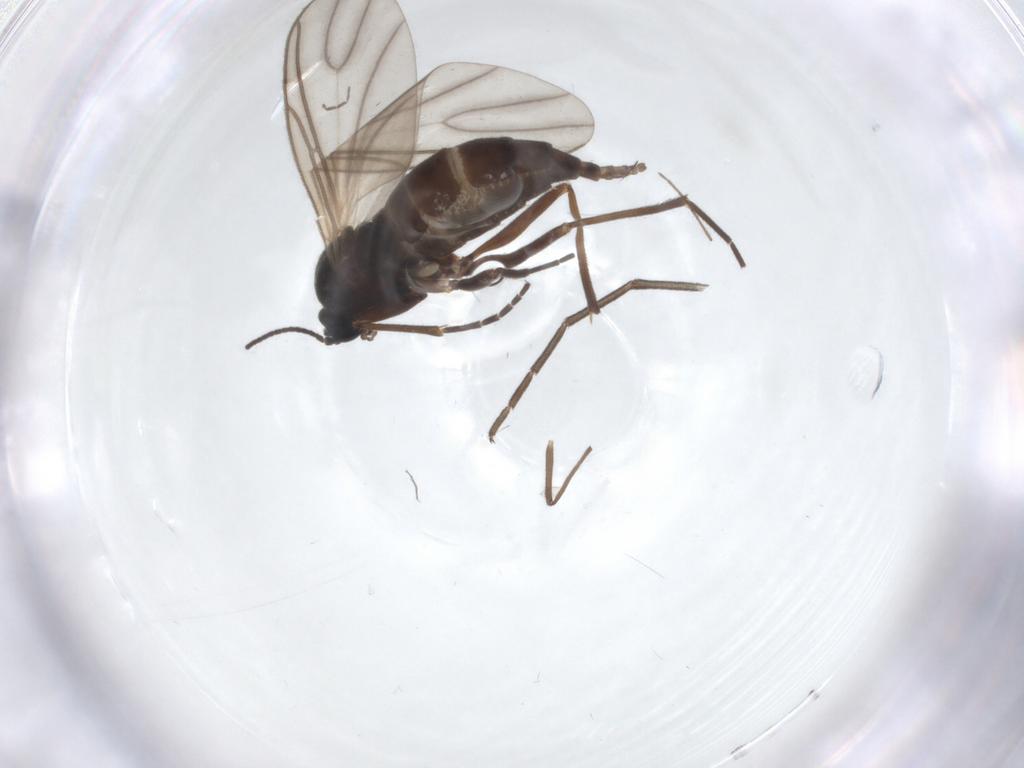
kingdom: Animalia
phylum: Arthropoda
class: Insecta
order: Diptera
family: Sciaridae
